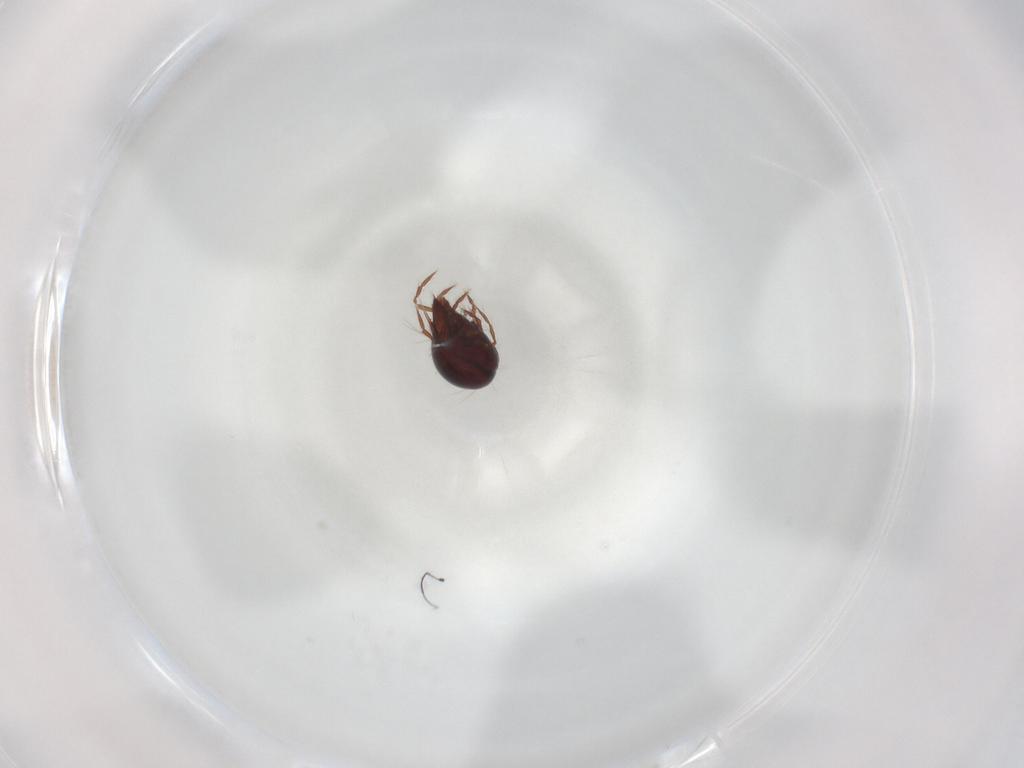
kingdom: Animalia
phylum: Arthropoda
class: Arachnida
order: Sarcoptiformes
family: Ceratoppiidae
